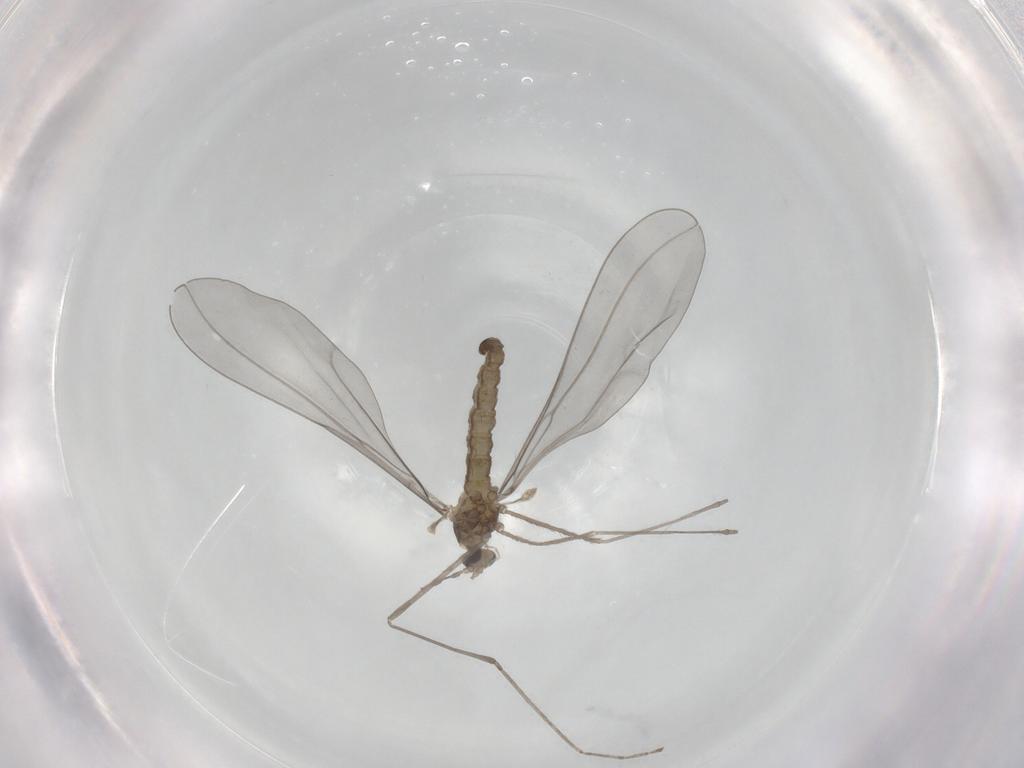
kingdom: Animalia
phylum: Arthropoda
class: Insecta
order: Diptera
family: Cecidomyiidae
